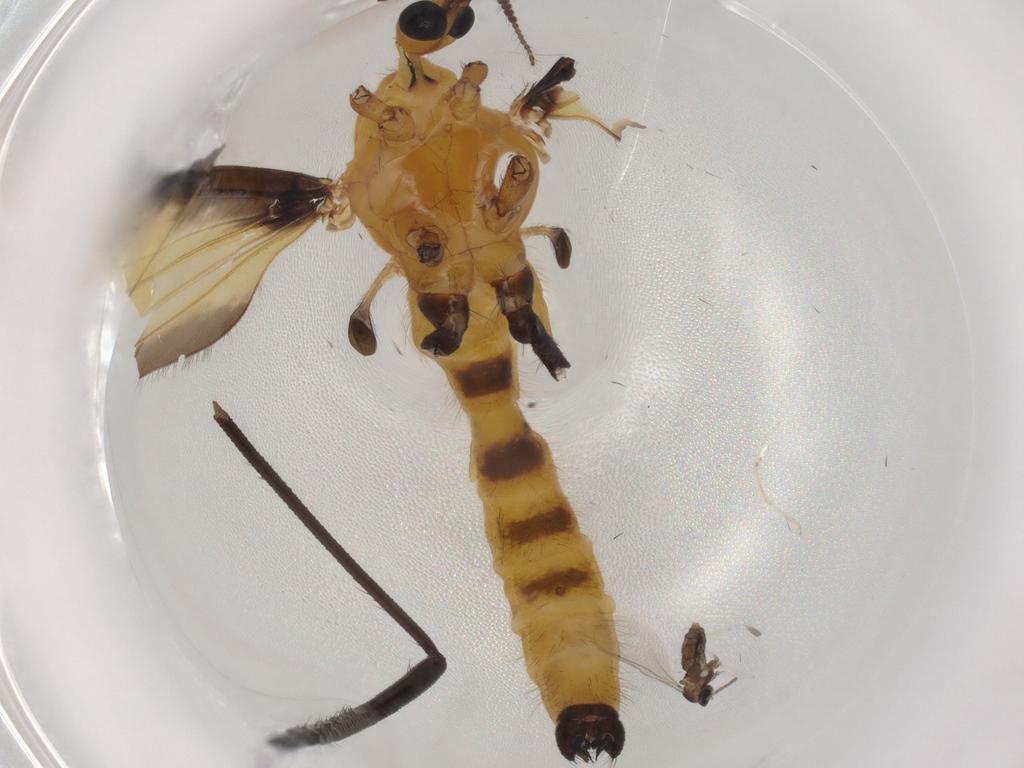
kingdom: Animalia
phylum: Arthropoda
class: Insecta
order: Diptera
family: Limoniidae
